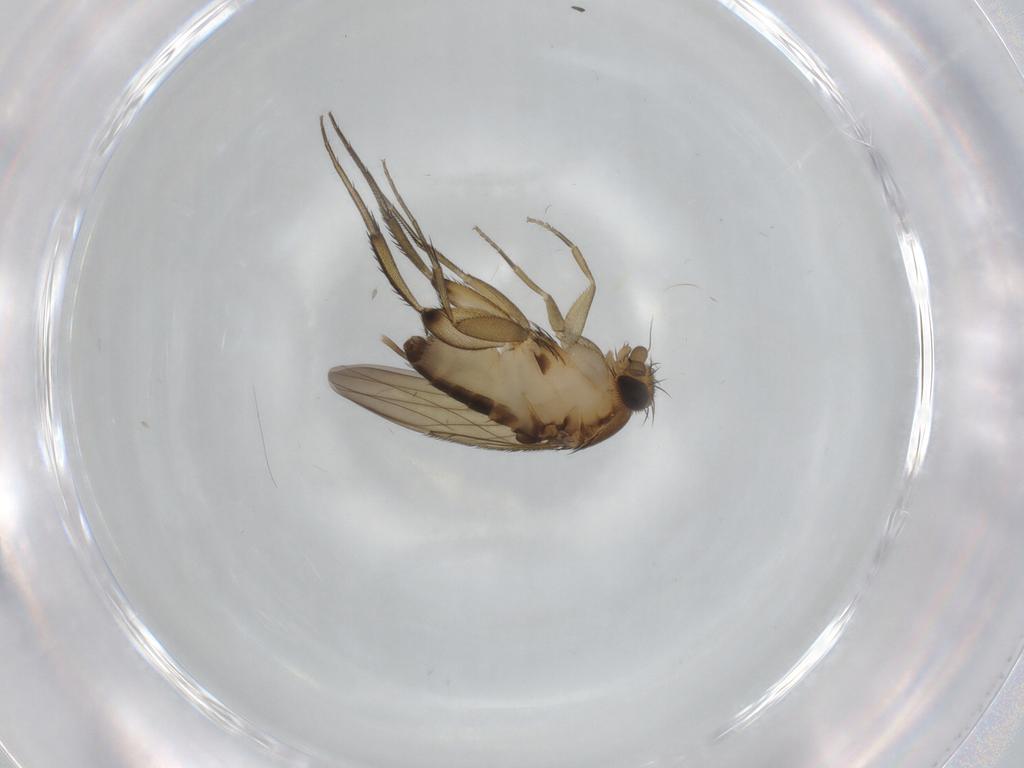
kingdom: Animalia
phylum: Arthropoda
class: Insecta
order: Diptera
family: Phoridae
